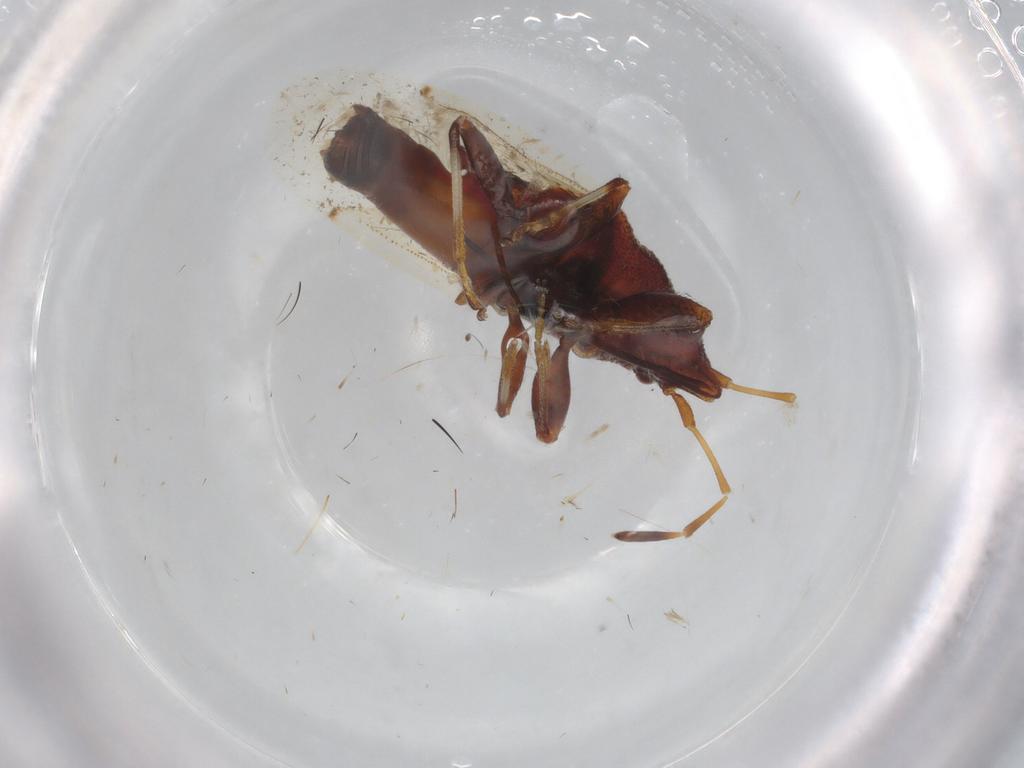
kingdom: Animalia
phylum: Arthropoda
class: Insecta
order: Hemiptera
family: Oxycarenidae
